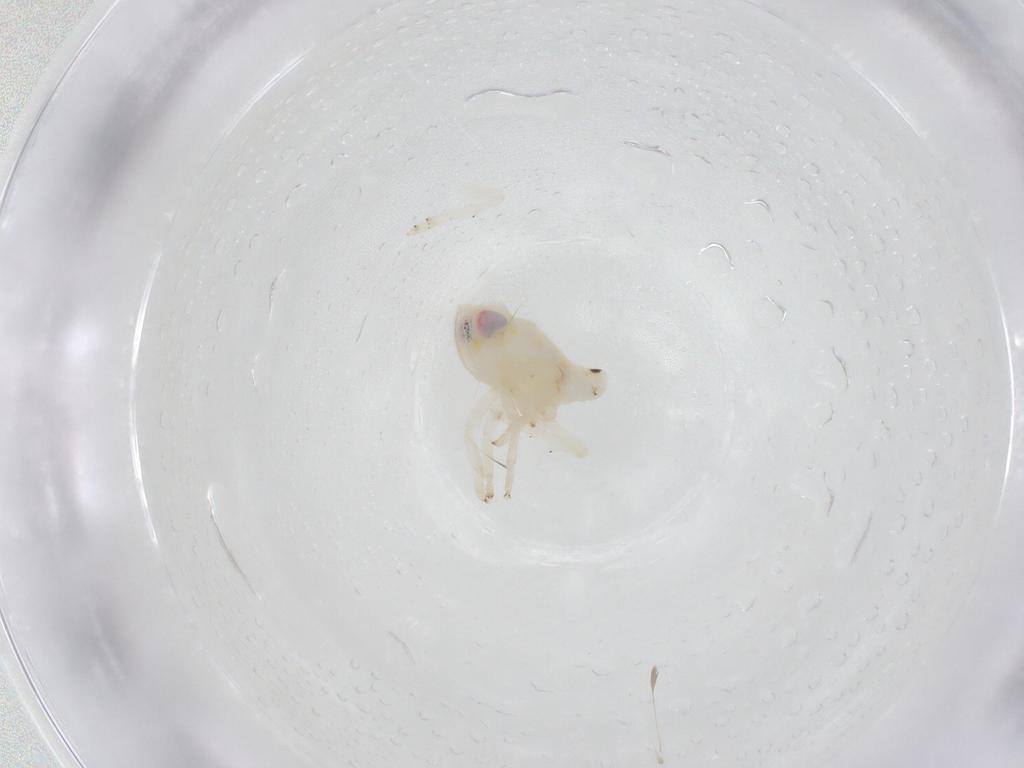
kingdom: Animalia
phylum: Arthropoda
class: Insecta
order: Hemiptera
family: Nogodinidae
